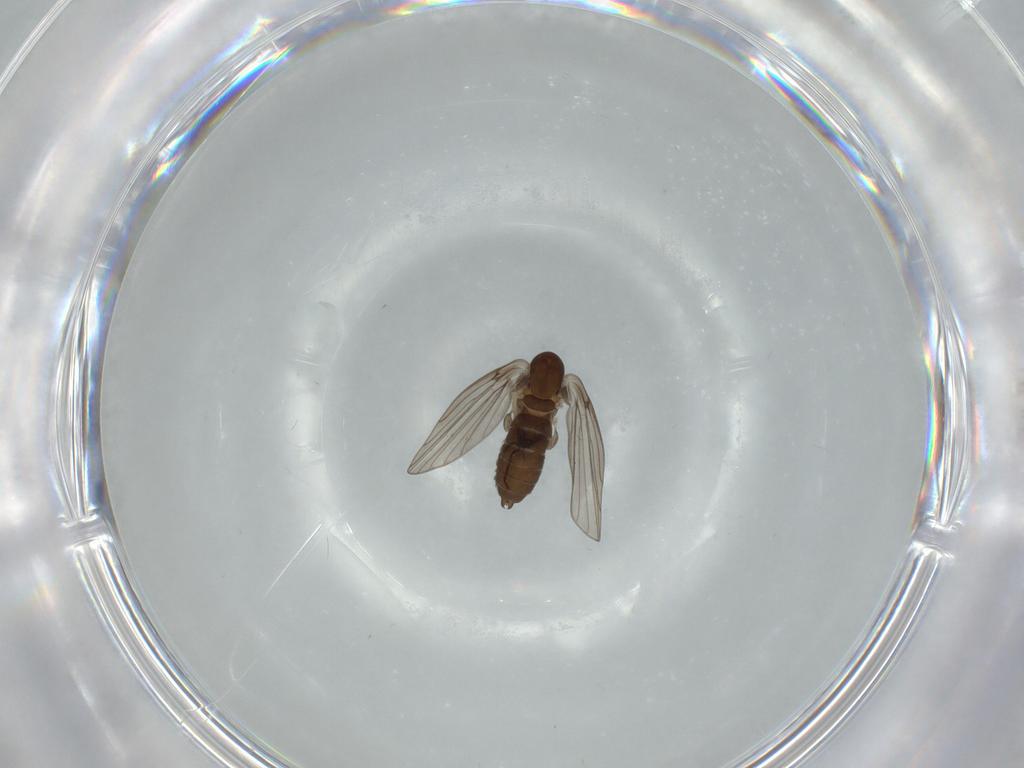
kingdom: Animalia
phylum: Arthropoda
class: Insecta
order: Diptera
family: Psychodidae
